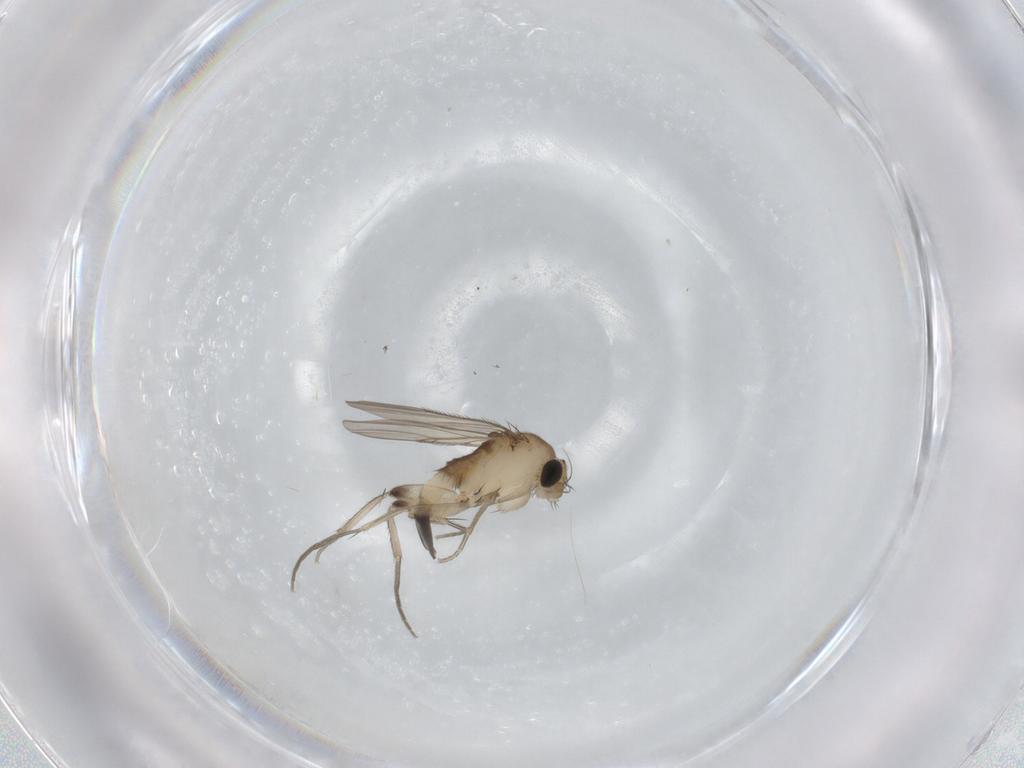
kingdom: Animalia
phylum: Arthropoda
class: Insecta
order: Diptera
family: Phoridae
